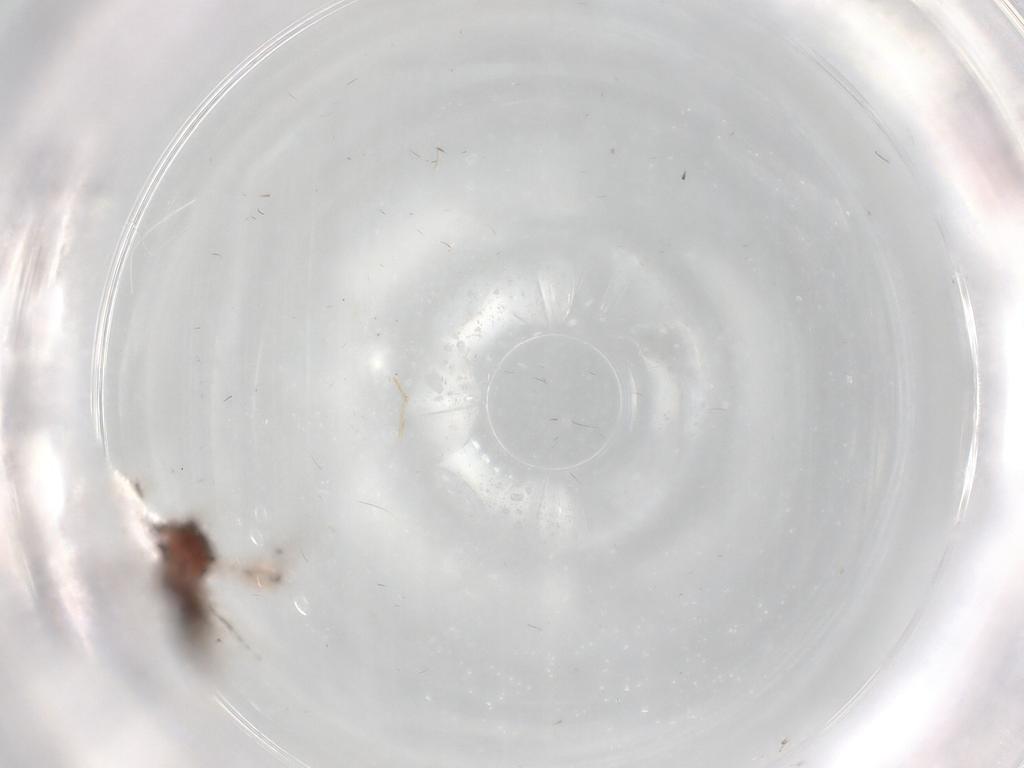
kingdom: Animalia
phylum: Arthropoda
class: Insecta
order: Hymenoptera
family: Platygastridae
